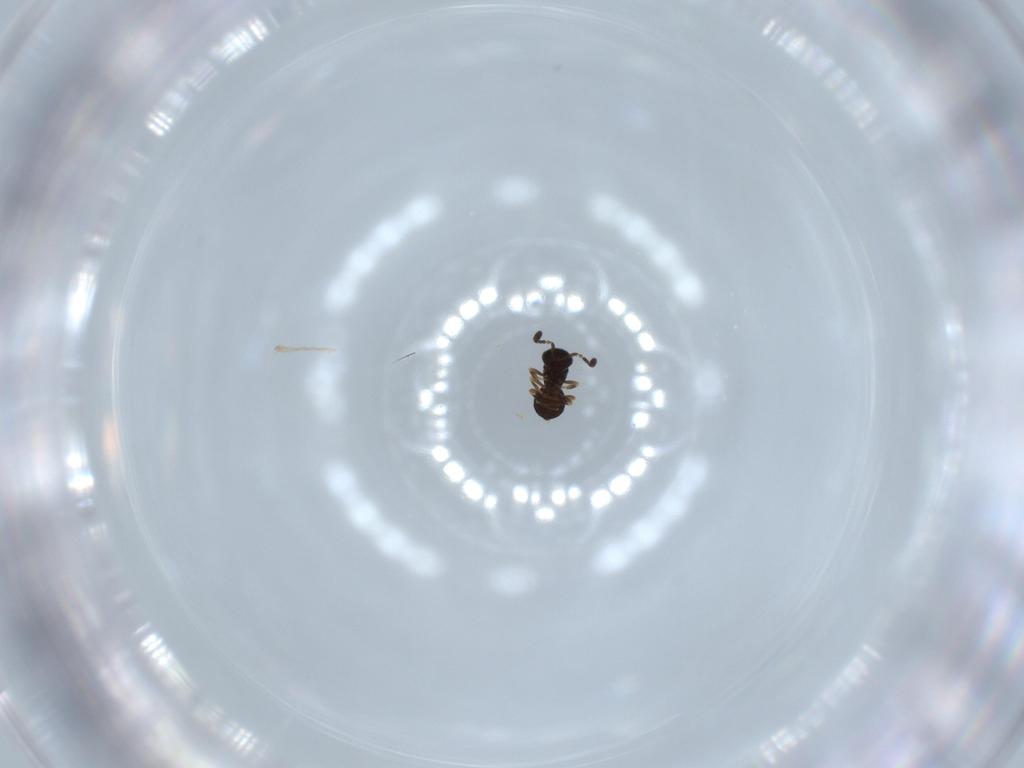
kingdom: Animalia
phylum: Arthropoda
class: Insecta
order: Hymenoptera
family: Scelionidae
